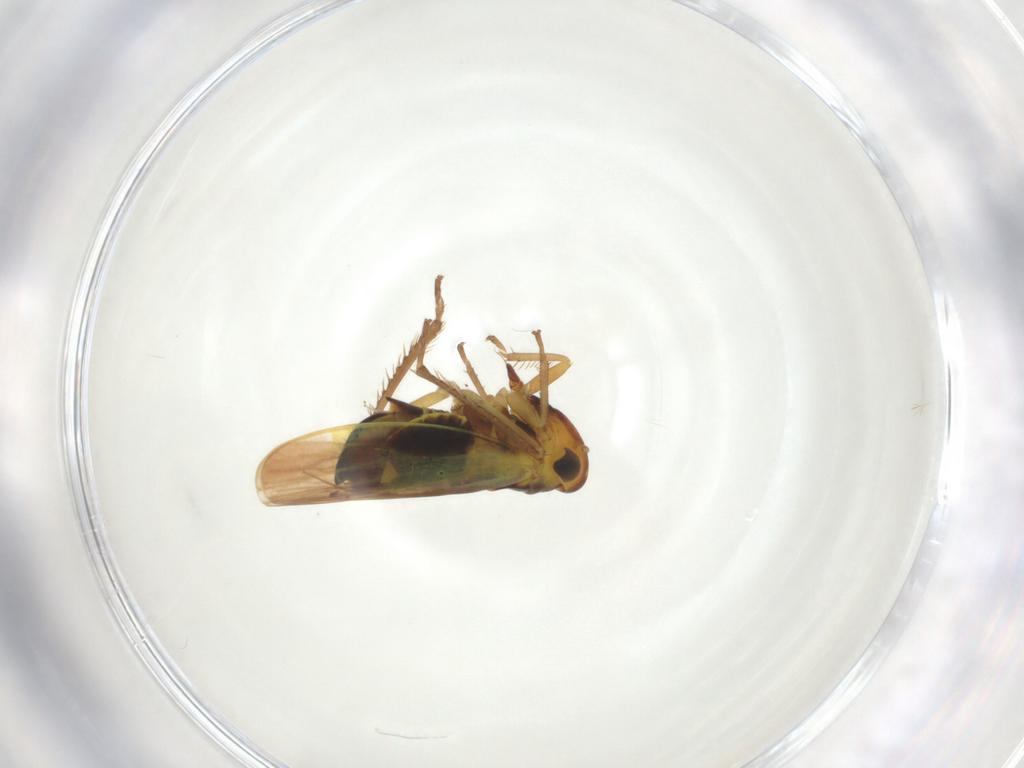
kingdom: Animalia
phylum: Arthropoda
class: Insecta
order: Hemiptera
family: Cicadellidae
